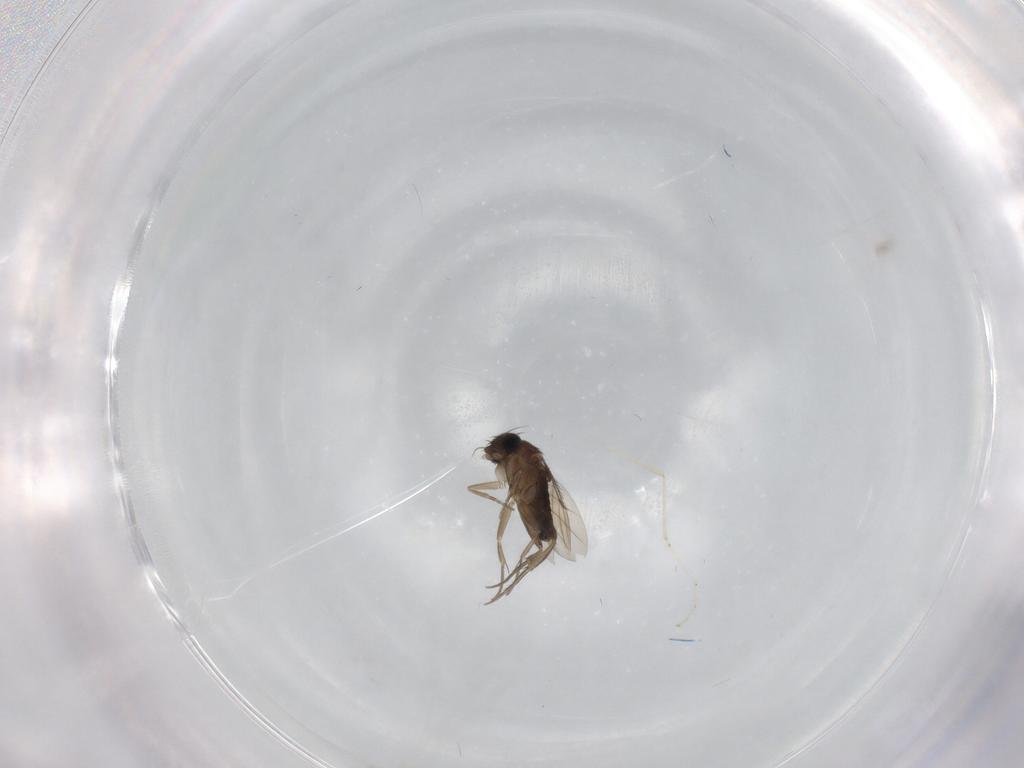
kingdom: Animalia
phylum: Arthropoda
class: Insecta
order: Diptera
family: Phoridae
